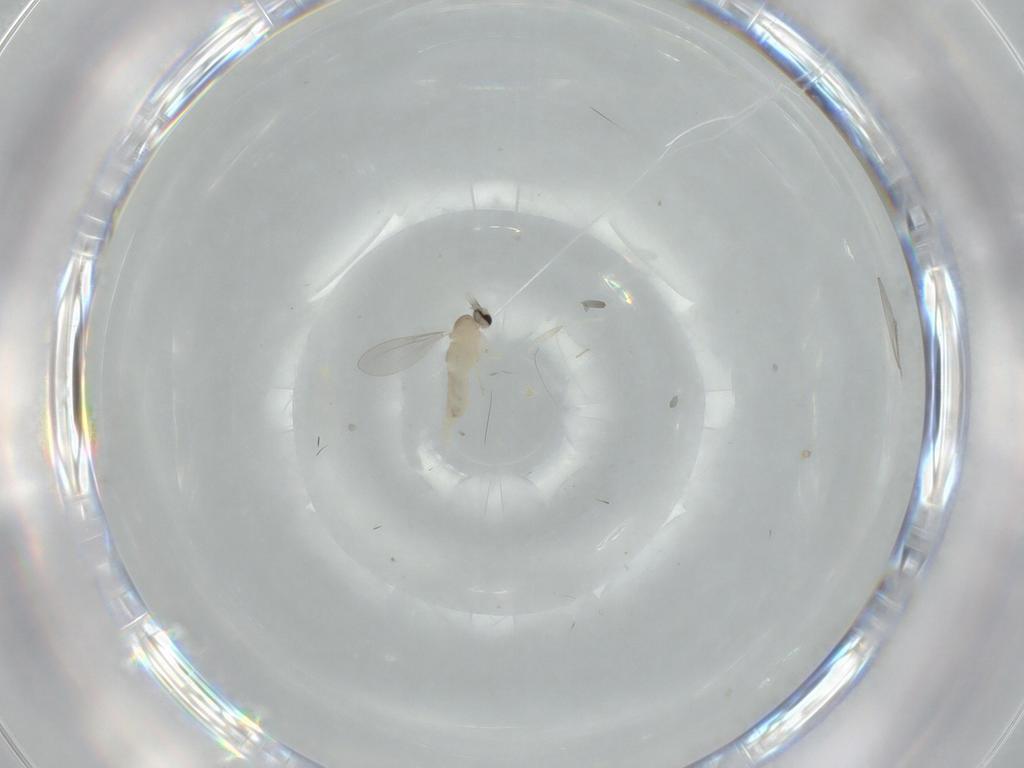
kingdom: Animalia
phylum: Arthropoda
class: Insecta
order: Diptera
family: Cecidomyiidae
